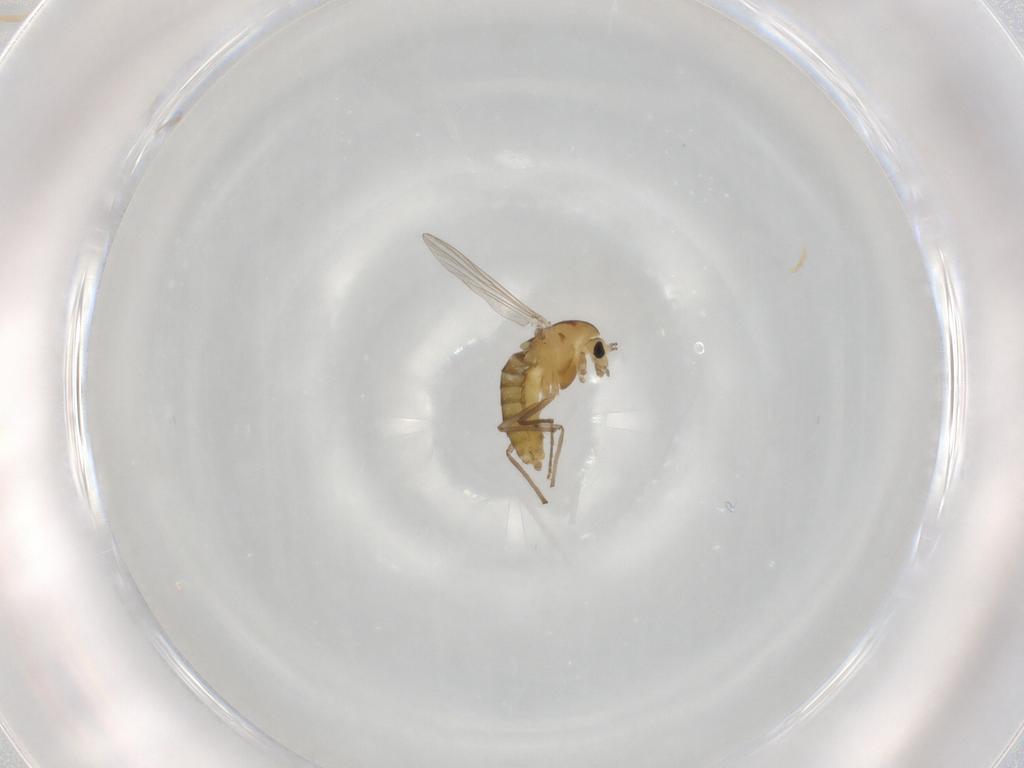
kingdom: Animalia
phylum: Arthropoda
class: Insecta
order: Diptera
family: Chironomidae
